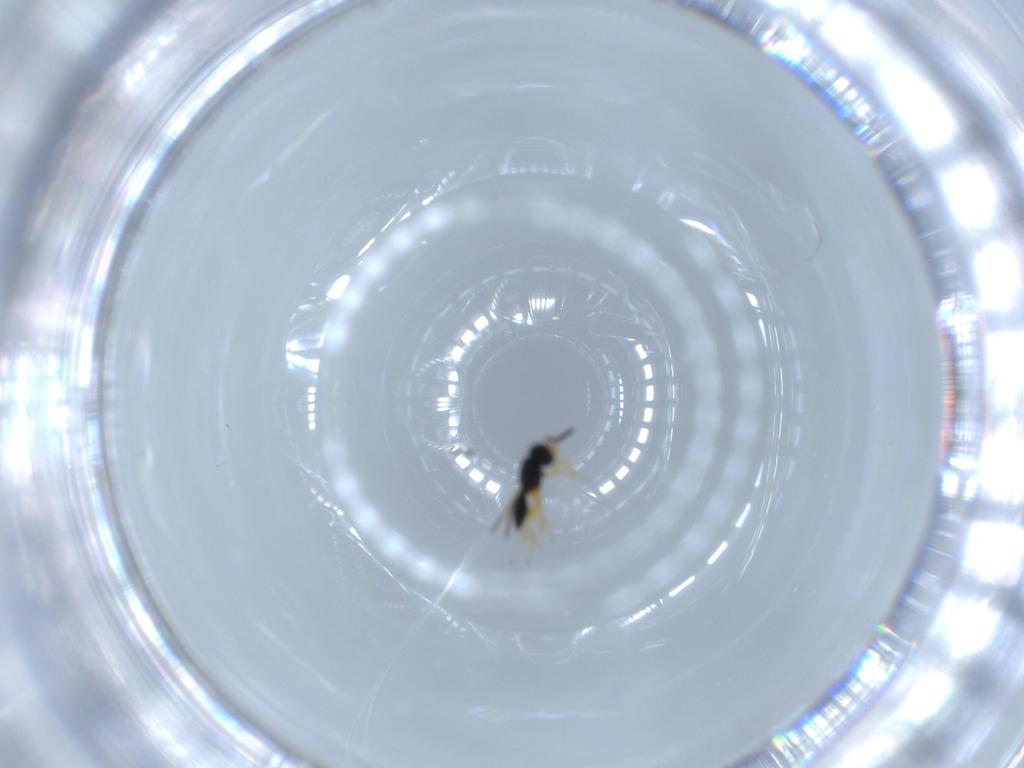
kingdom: Animalia
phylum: Arthropoda
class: Insecta
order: Hymenoptera
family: Scelionidae
